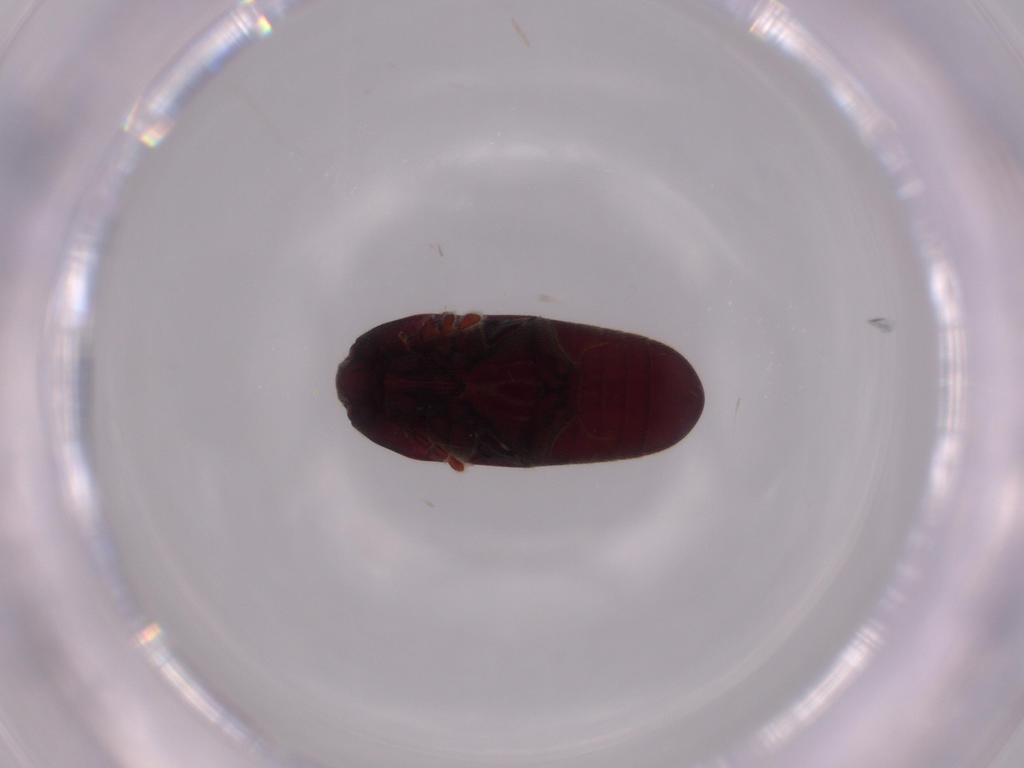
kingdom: Animalia
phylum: Arthropoda
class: Insecta
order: Coleoptera
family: Throscidae
